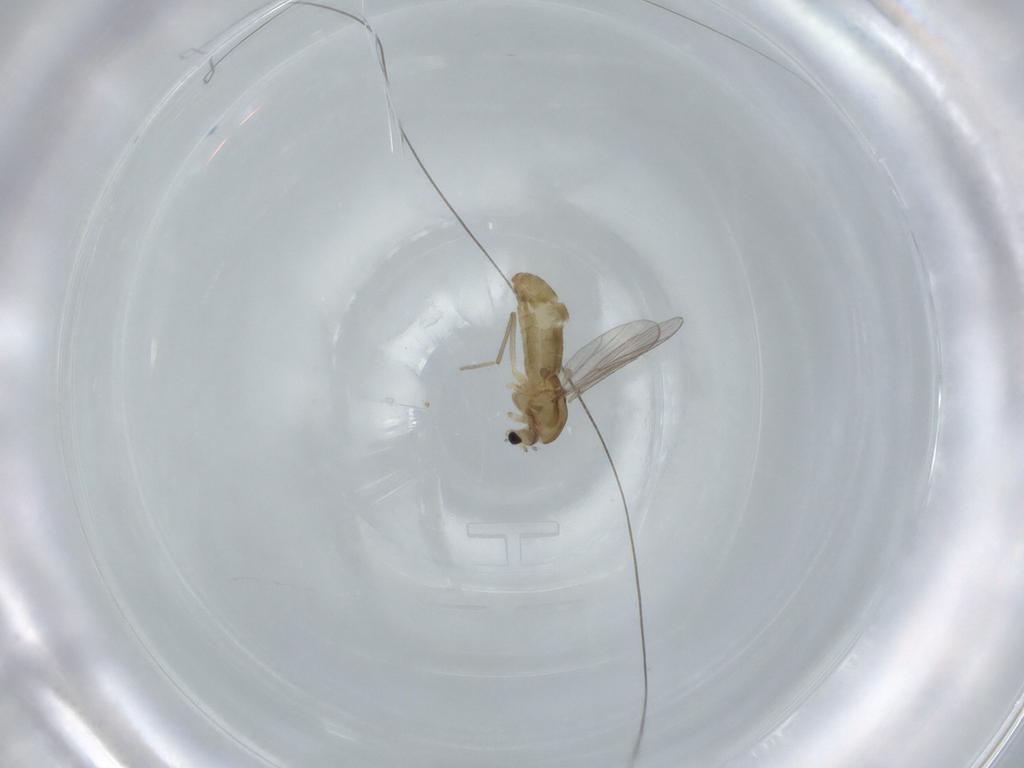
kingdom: Animalia
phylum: Arthropoda
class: Insecta
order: Diptera
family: Chironomidae
